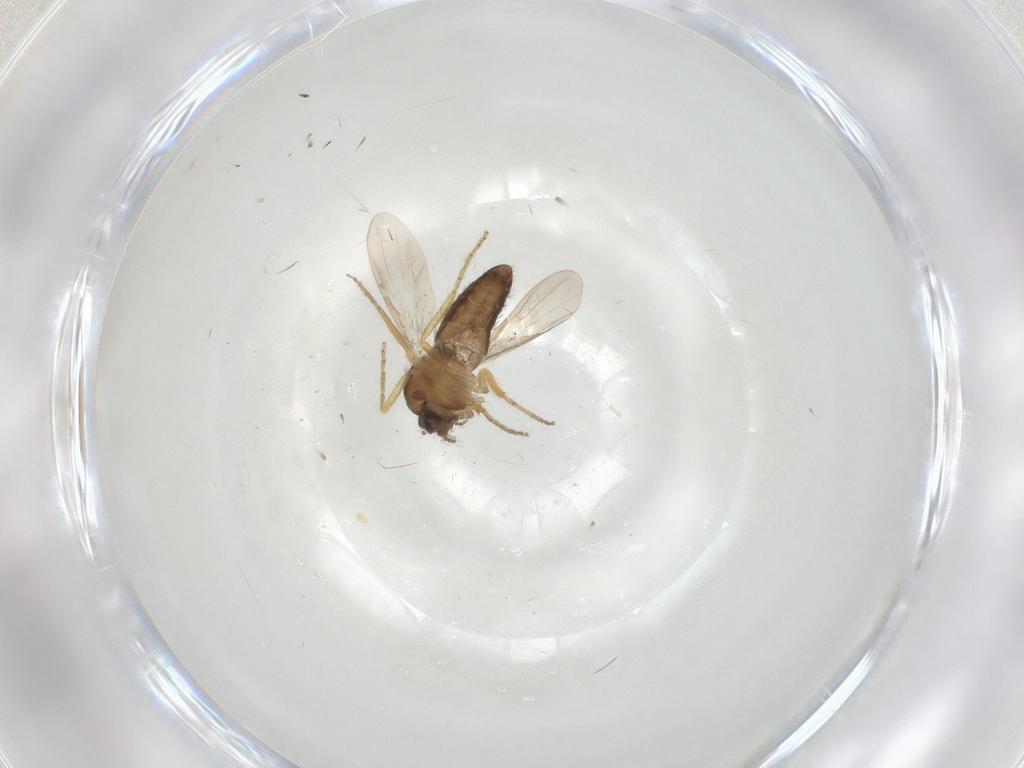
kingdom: Animalia
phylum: Arthropoda
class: Insecta
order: Diptera
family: Ceratopogonidae
